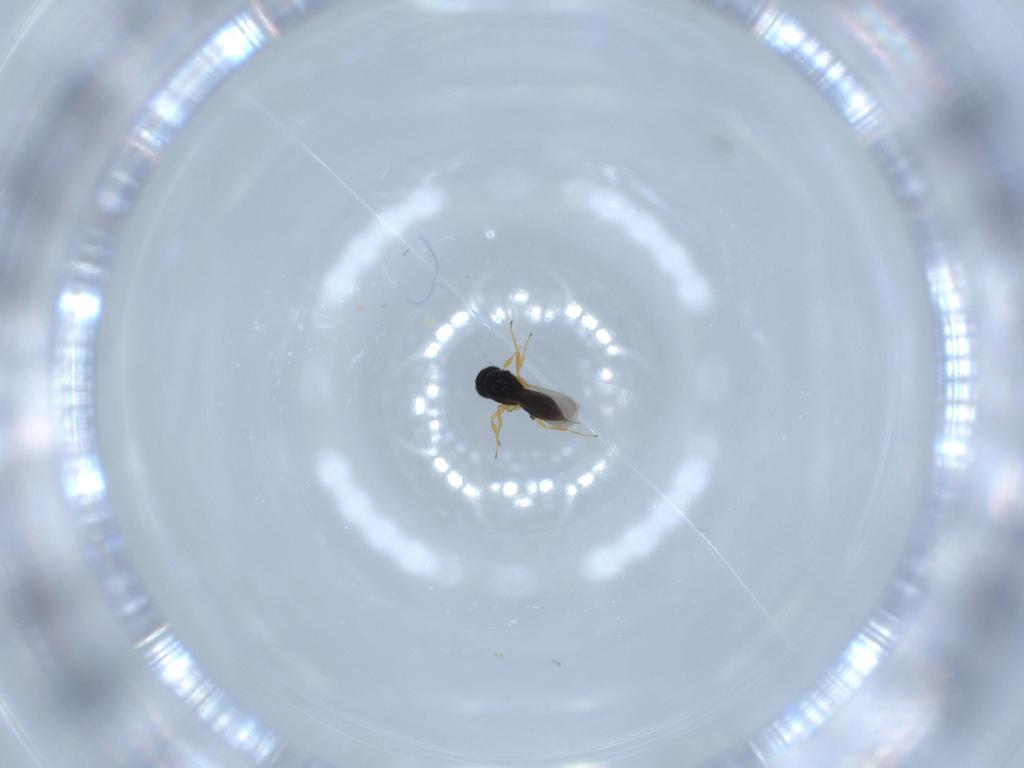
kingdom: Animalia
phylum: Arthropoda
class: Insecta
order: Hymenoptera
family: Scelionidae
